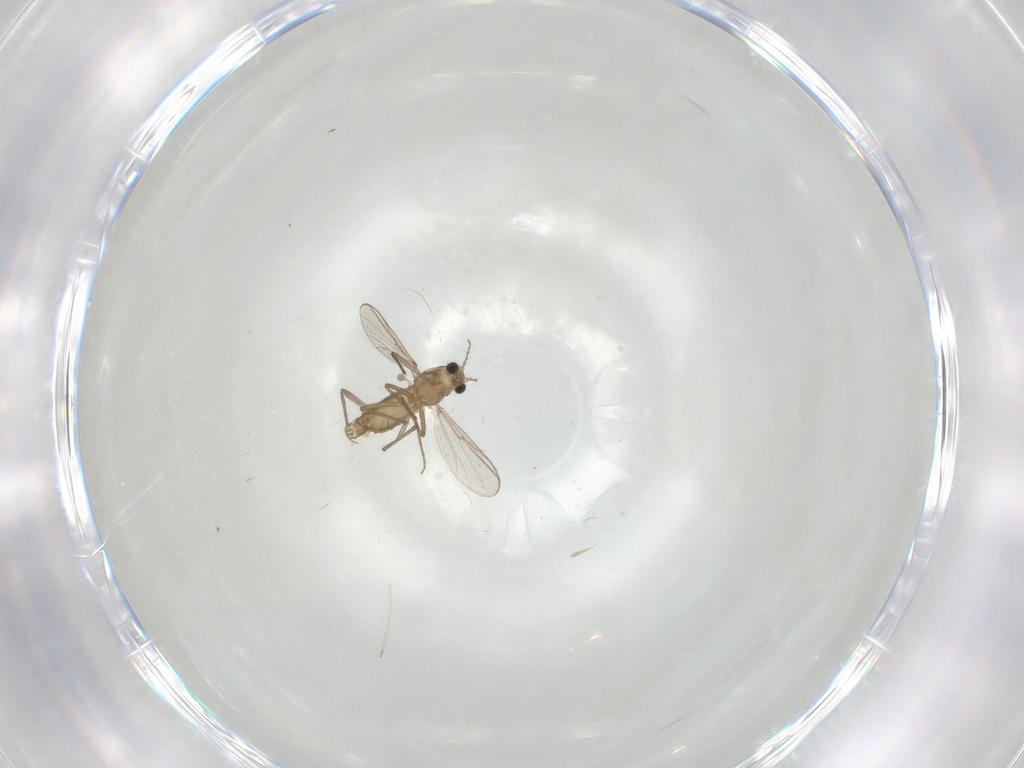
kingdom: Animalia
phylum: Arthropoda
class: Insecta
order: Diptera
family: Chironomidae
